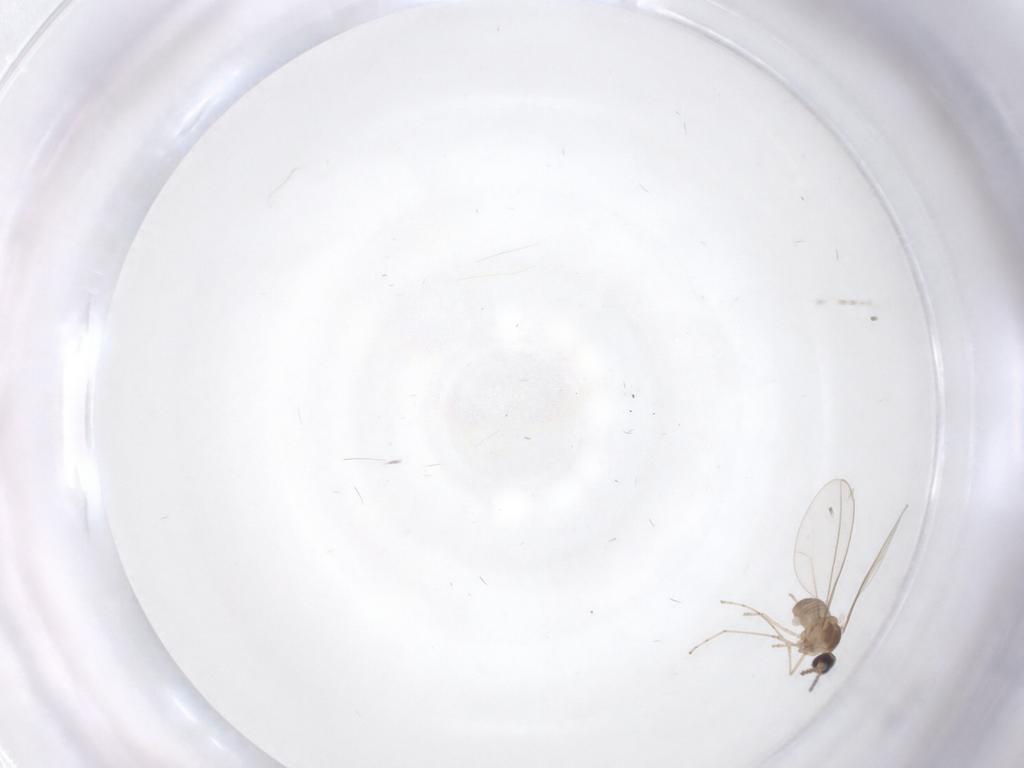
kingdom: Animalia
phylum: Arthropoda
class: Insecta
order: Diptera
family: Cecidomyiidae
